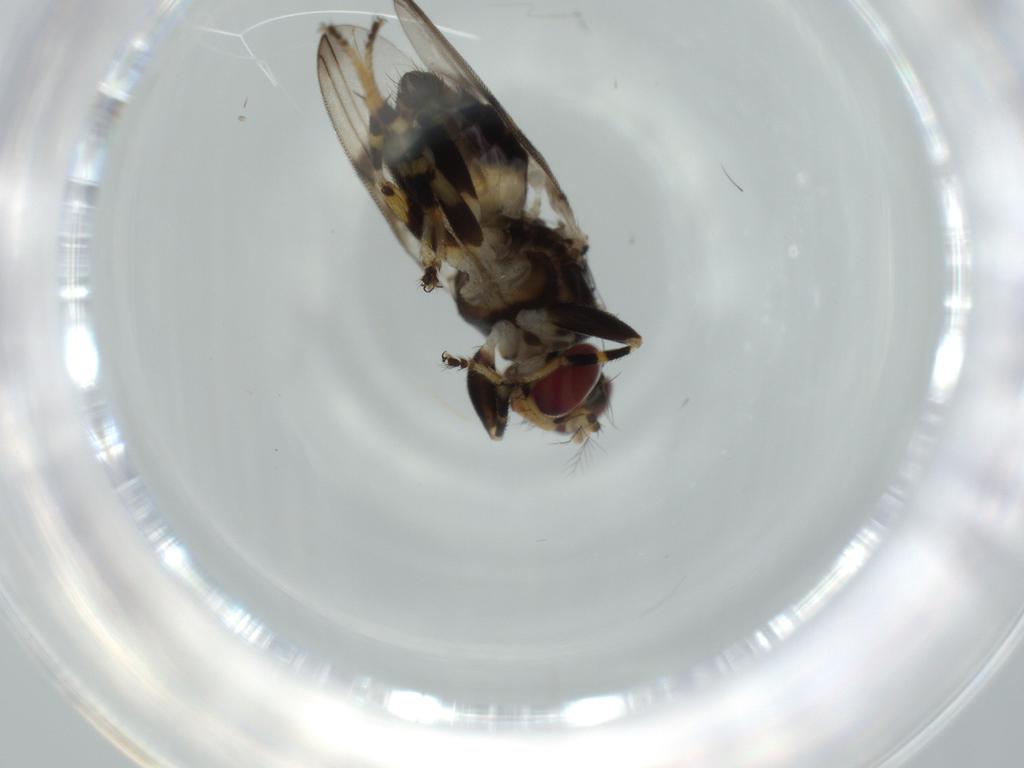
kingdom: Animalia
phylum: Arthropoda
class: Insecta
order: Diptera
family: Periscelididae
